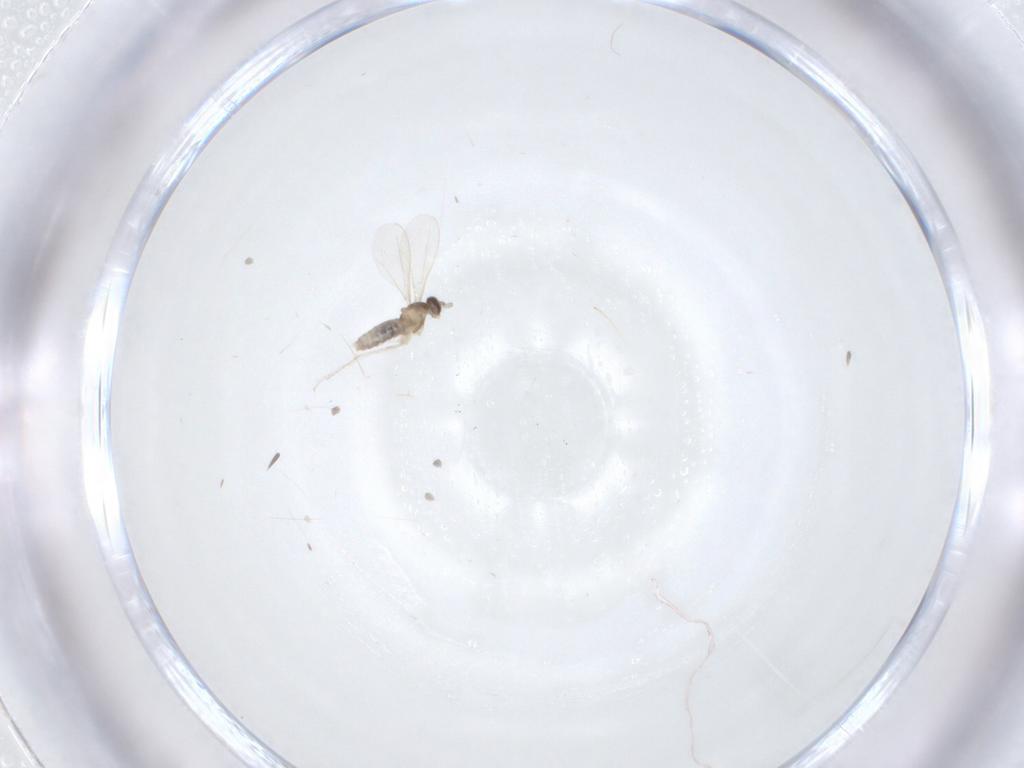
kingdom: Animalia
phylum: Arthropoda
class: Insecta
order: Diptera
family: Cecidomyiidae
